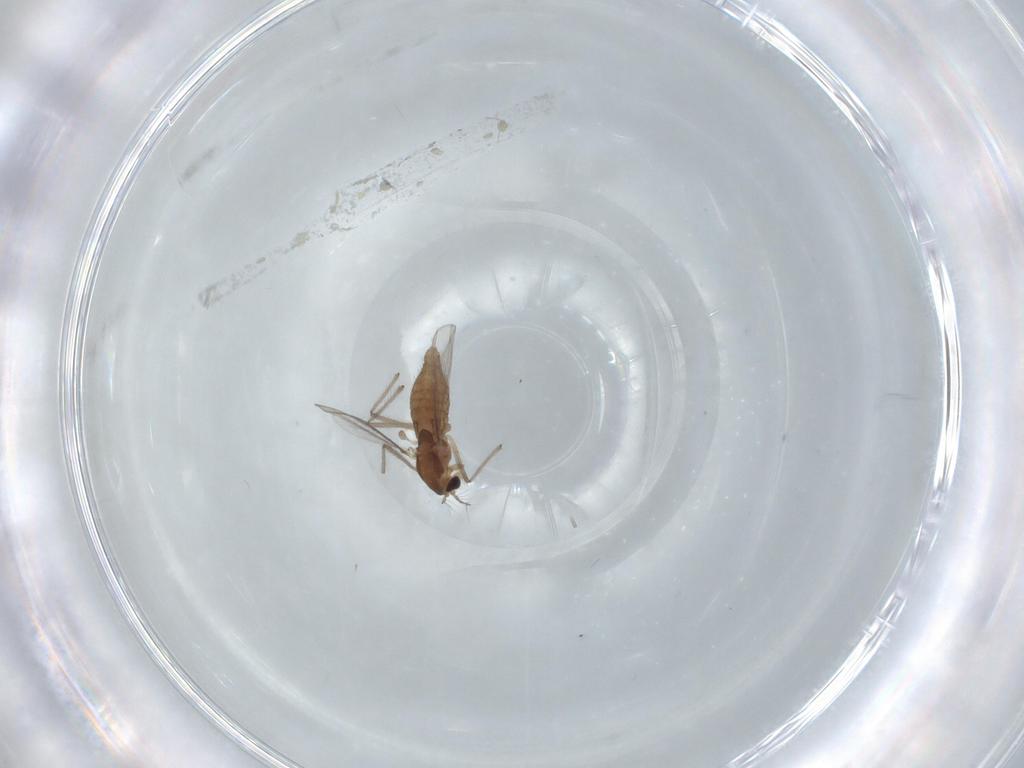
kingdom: Animalia
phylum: Arthropoda
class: Insecta
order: Diptera
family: Chironomidae
